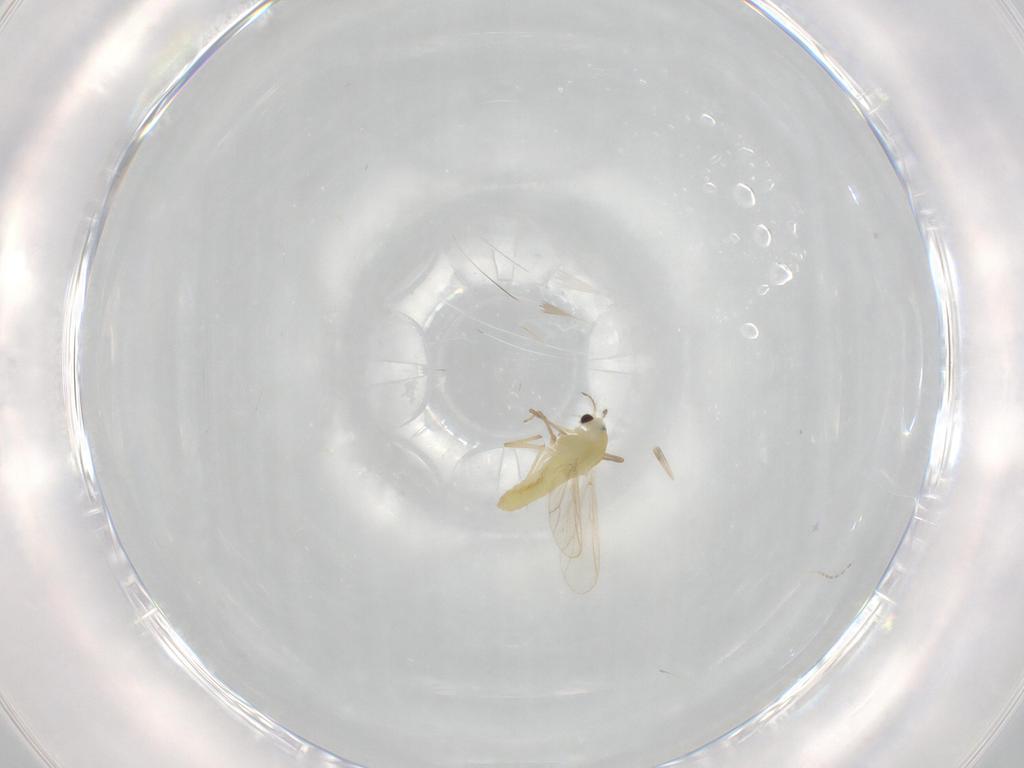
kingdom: Animalia
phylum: Arthropoda
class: Insecta
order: Diptera
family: Chironomidae
